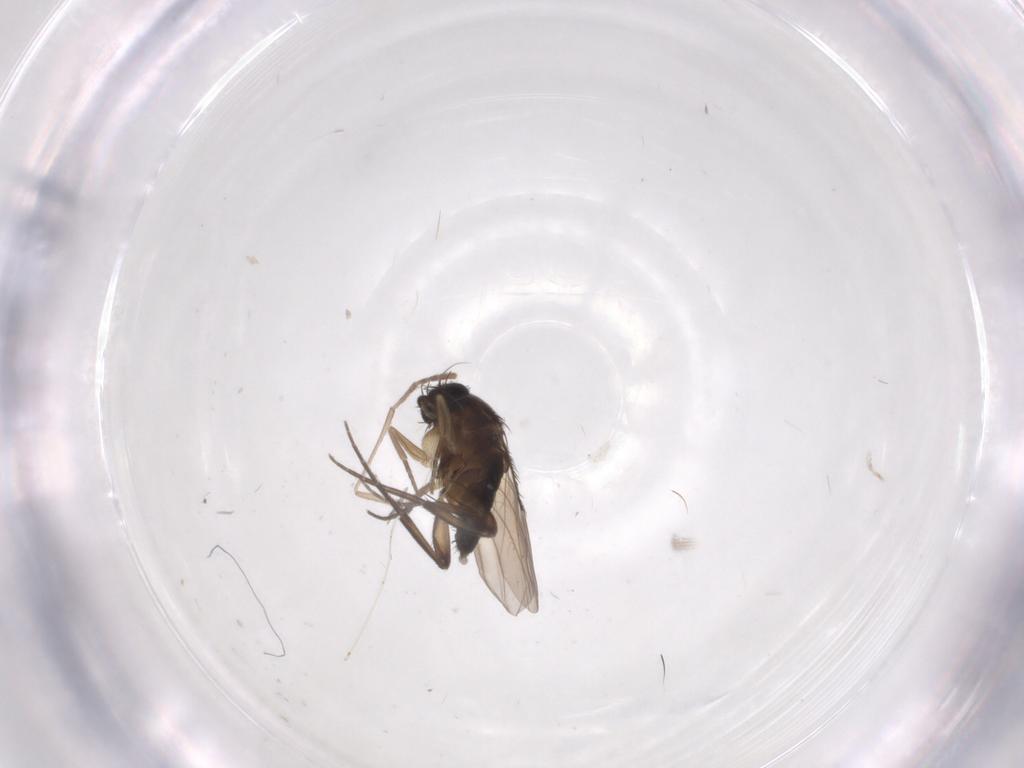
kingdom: Animalia
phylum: Arthropoda
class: Insecta
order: Diptera
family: Phoridae
